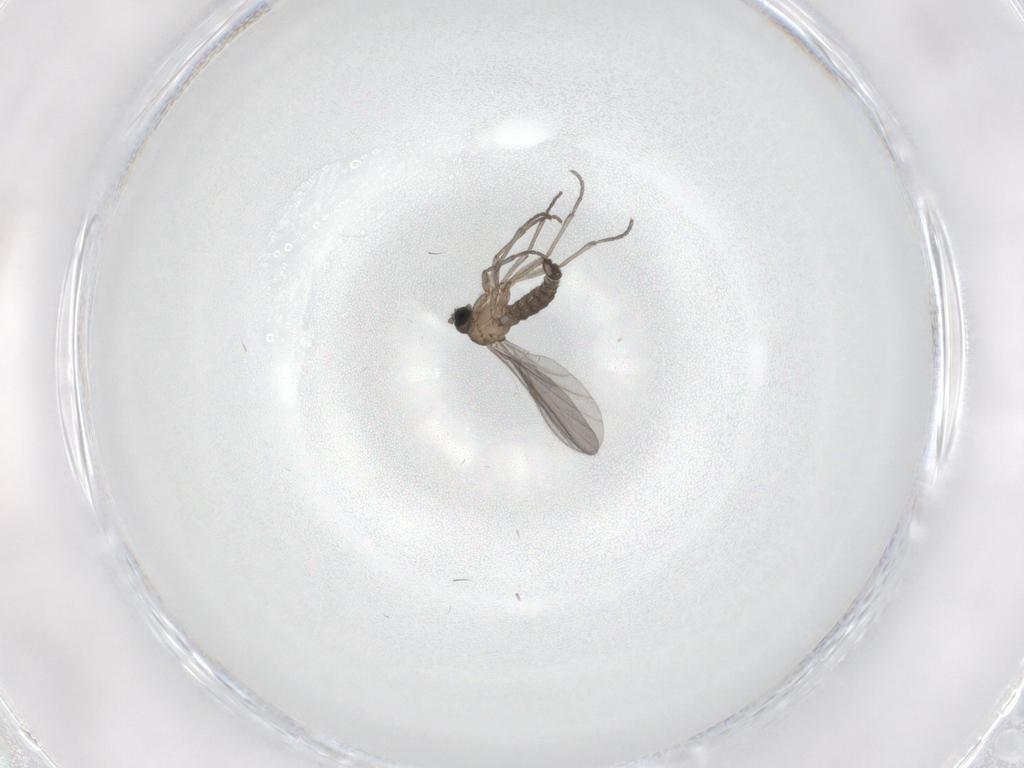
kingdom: Animalia
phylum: Arthropoda
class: Insecta
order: Diptera
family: Sciaridae
